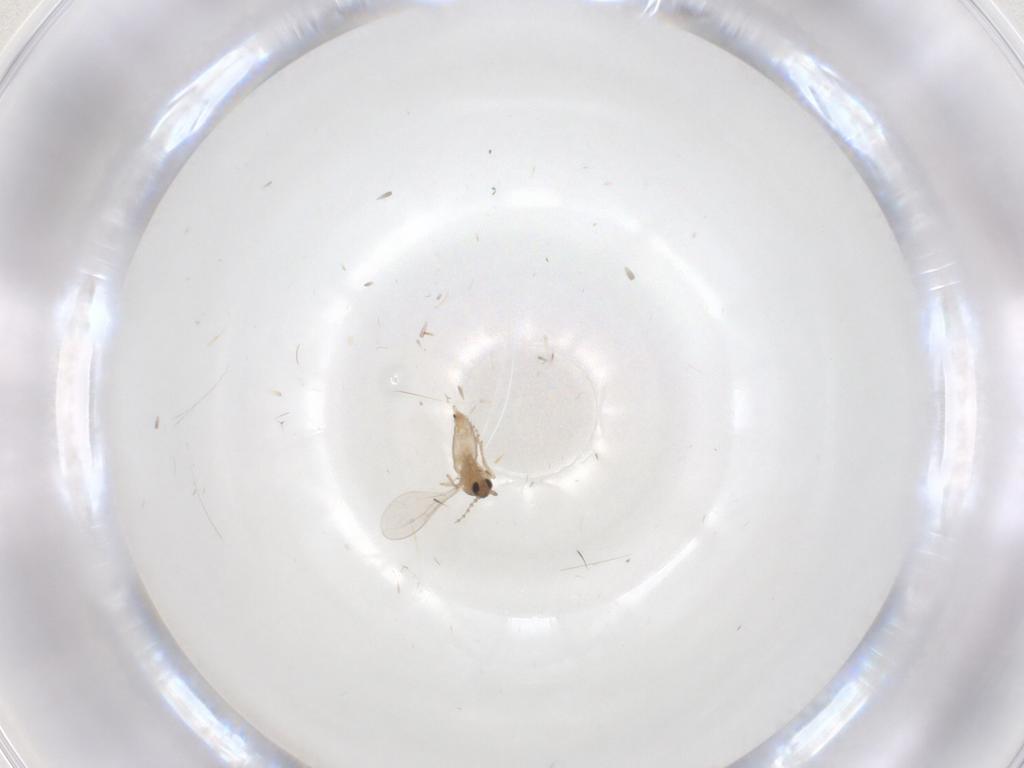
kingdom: Animalia
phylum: Arthropoda
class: Insecta
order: Diptera
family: Cecidomyiidae
